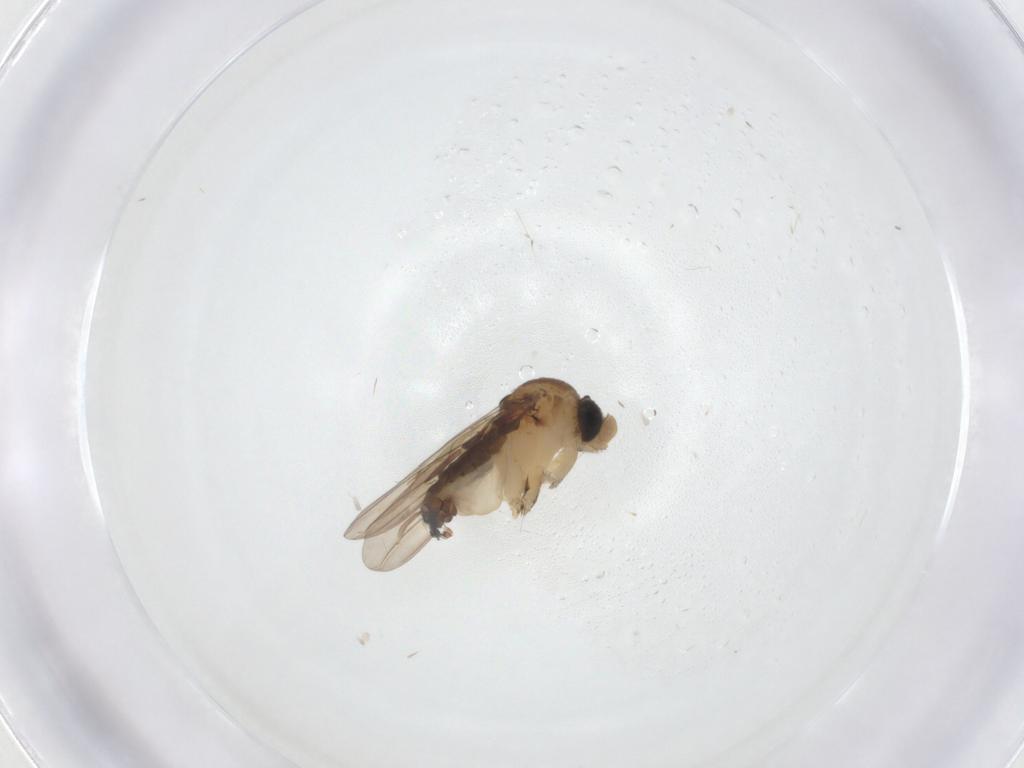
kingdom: Animalia
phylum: Arthropoda
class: Insecta
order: Diptera
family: Phoridae
